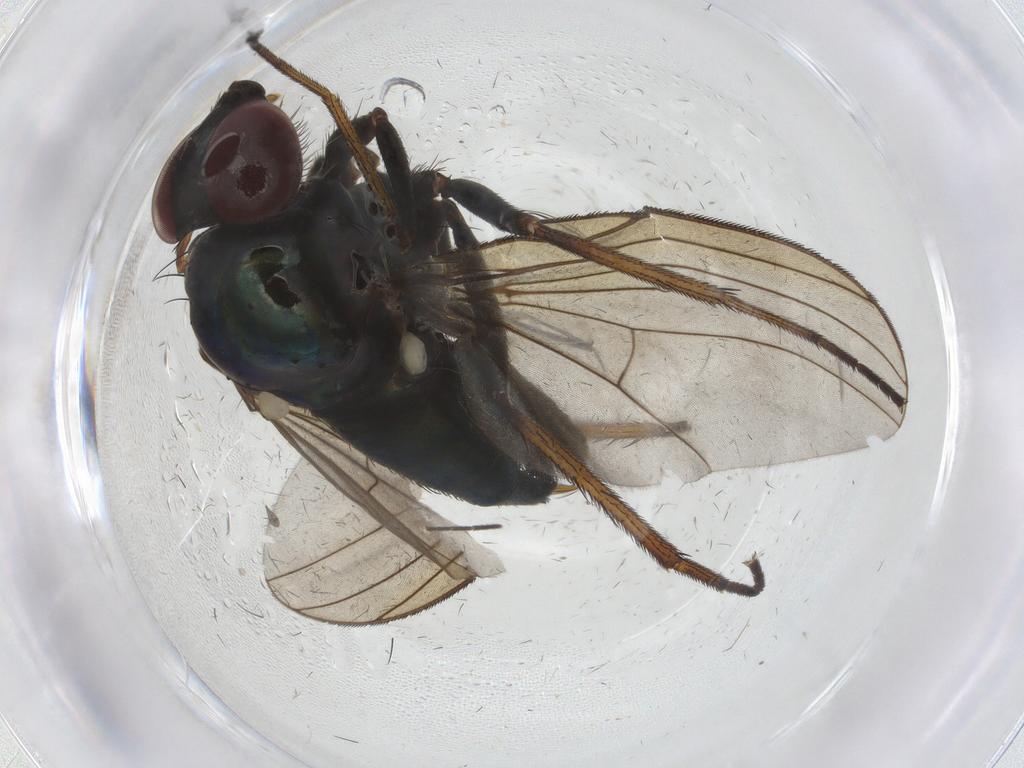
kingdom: Animalia
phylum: Arthropoda
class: Insecta
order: Diptera
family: Dolichopodidae
